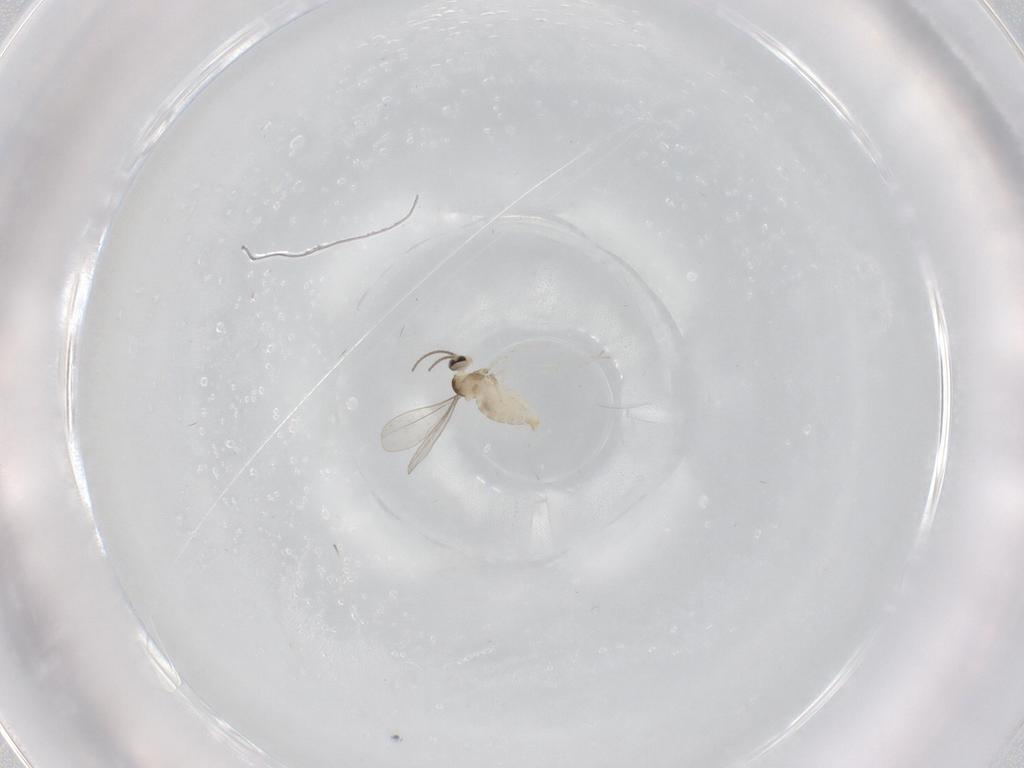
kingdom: Animalia
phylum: Arthropoda
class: Insecta
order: Diptera
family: Cecidomyiidae
